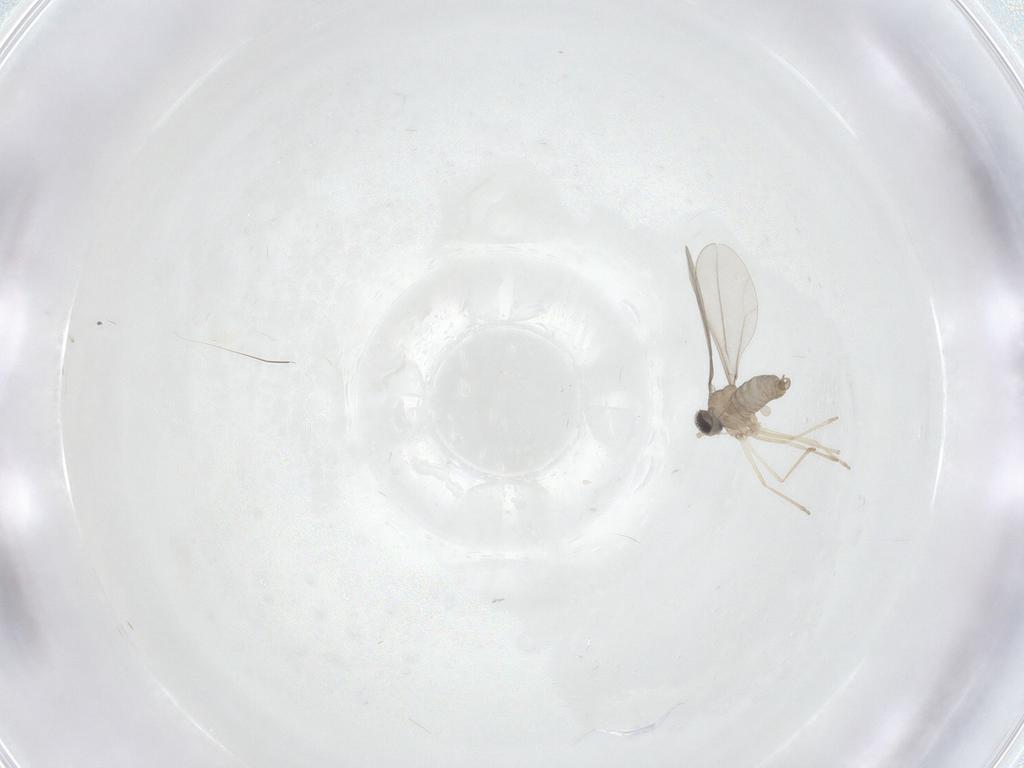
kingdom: Animalia
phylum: Arthropoda
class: Insecta
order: Diptera
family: Cecidomyiidae
